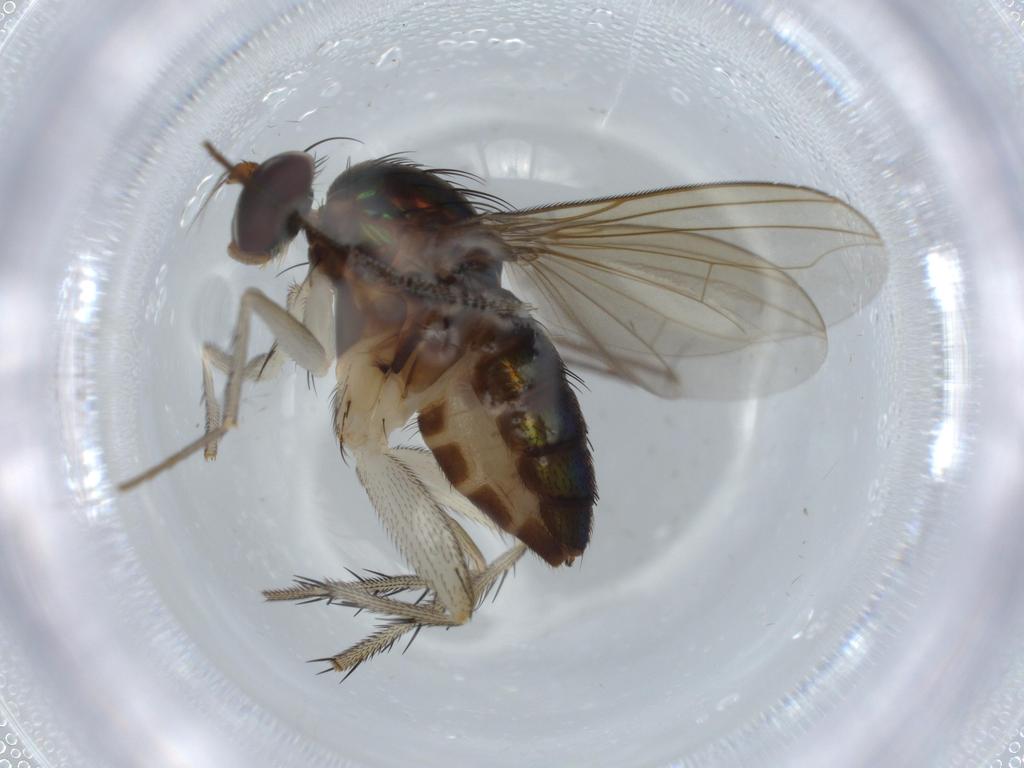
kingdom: Animalia
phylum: Arthropoda
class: Insecta
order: Diptera
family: Dolichopodidae
